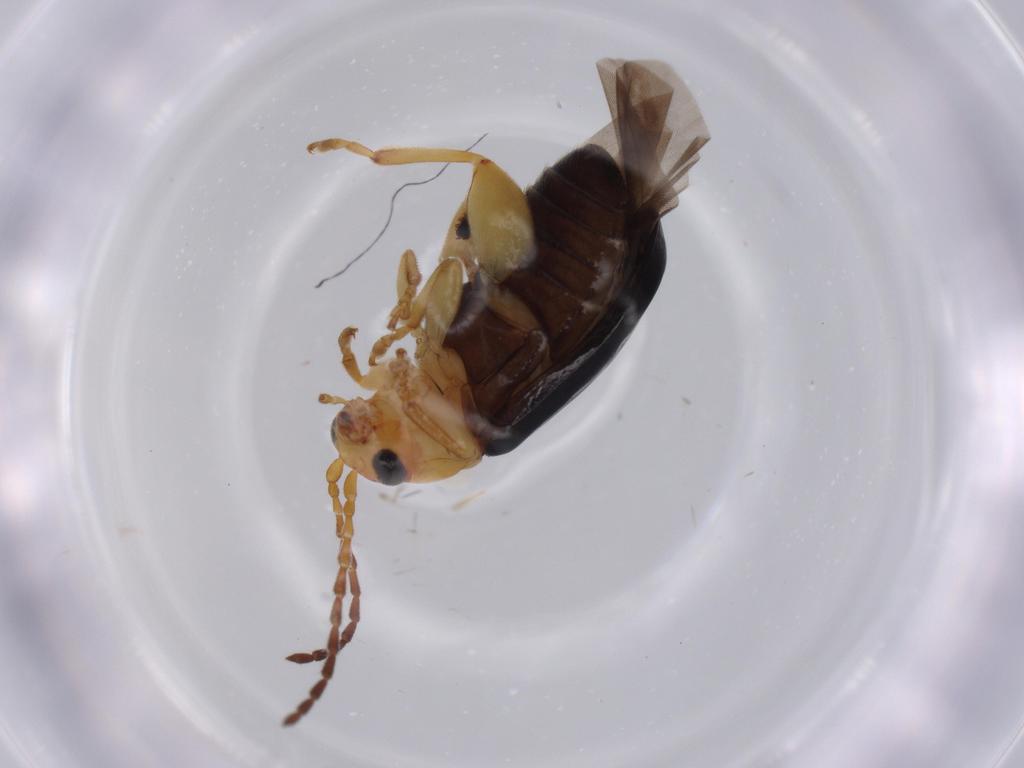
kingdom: Animalia
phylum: Arthropoda
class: Insecta
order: Coleoptera
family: Chrysomelidae
